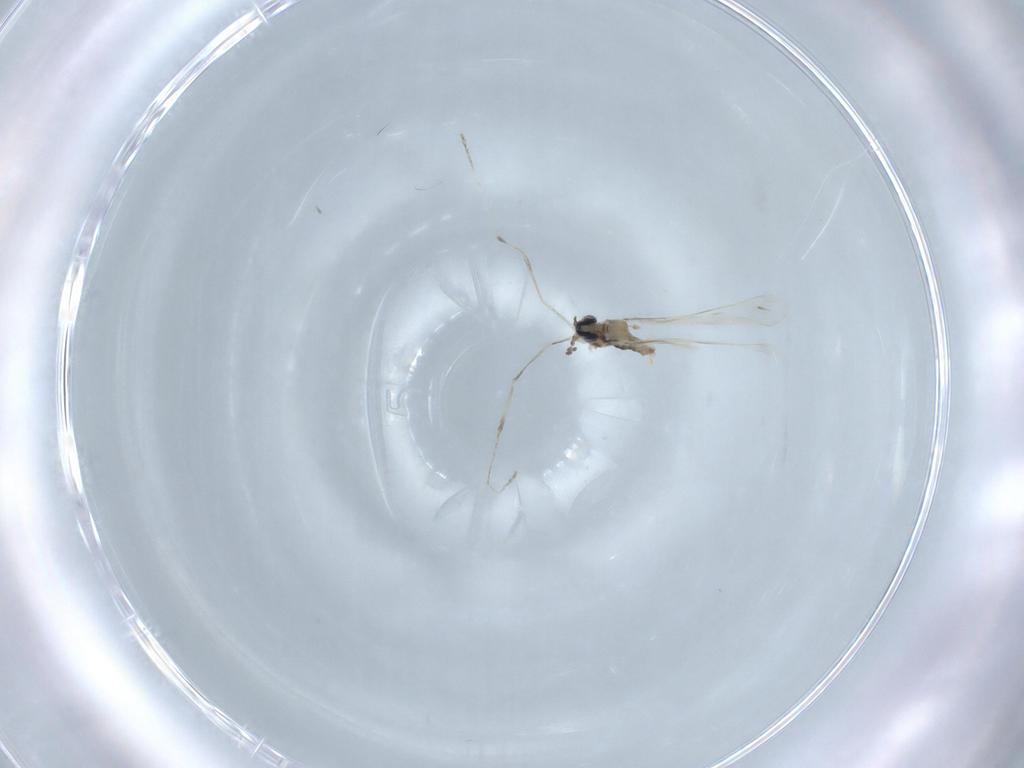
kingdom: Animalia
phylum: Arthropoda
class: Insecta
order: Diptera
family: Cecidomyiidae
